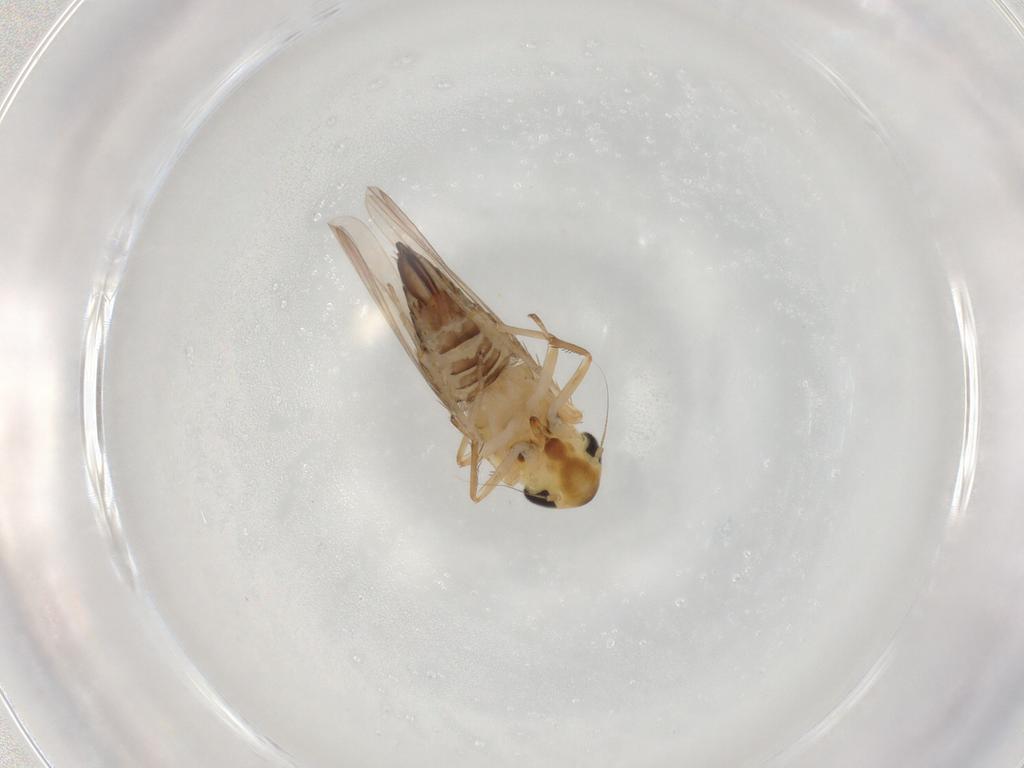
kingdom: Animalia
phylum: Arthropoda
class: Insecta
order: Hemiptera
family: Cicadellidae
